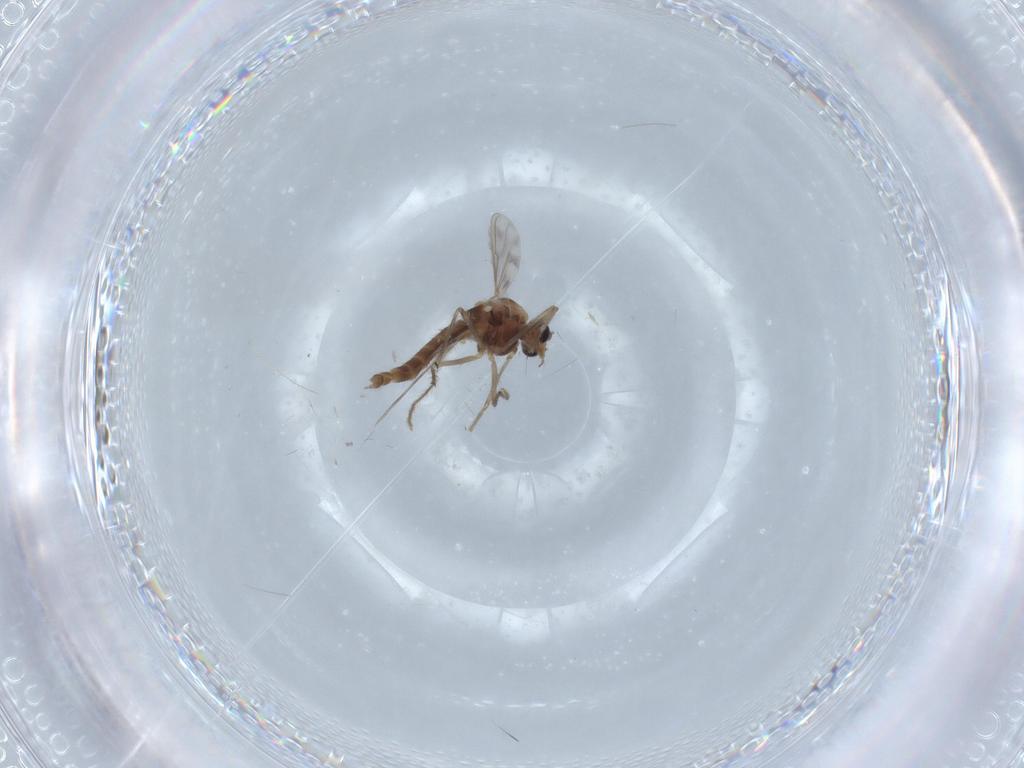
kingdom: Animalia
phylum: Arthropoda
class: Insecta
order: Diptera
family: Chironomidae
